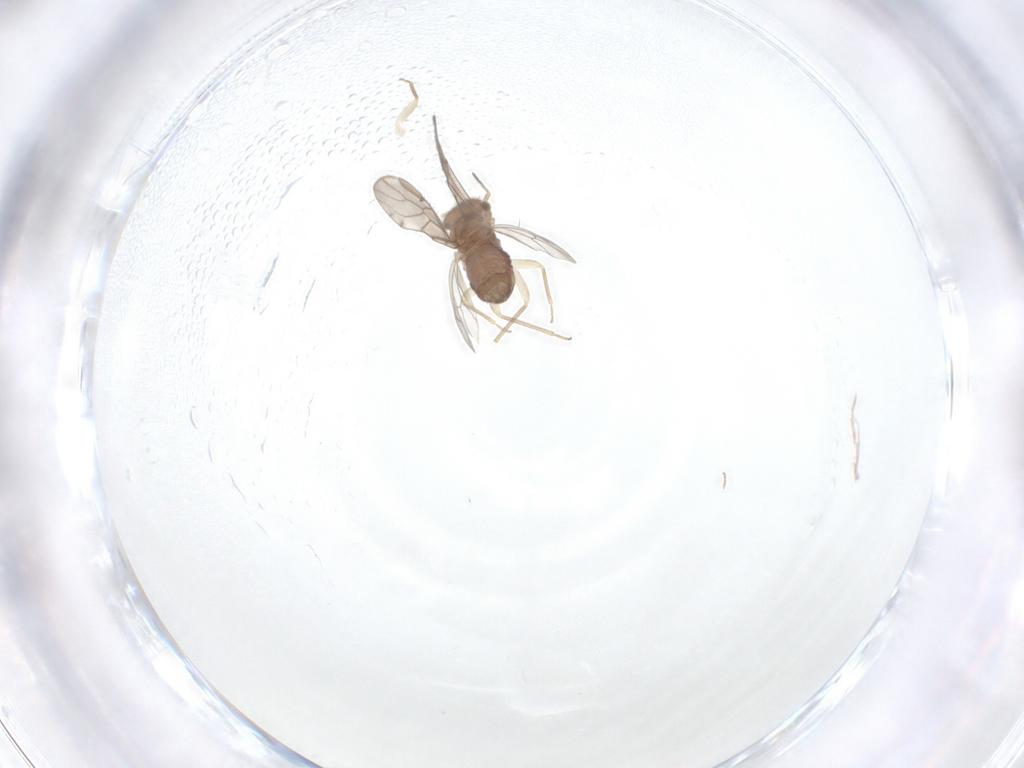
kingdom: Animalia
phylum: Arthropoda
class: Insecta
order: Psocodea
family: Ectopsocidae
